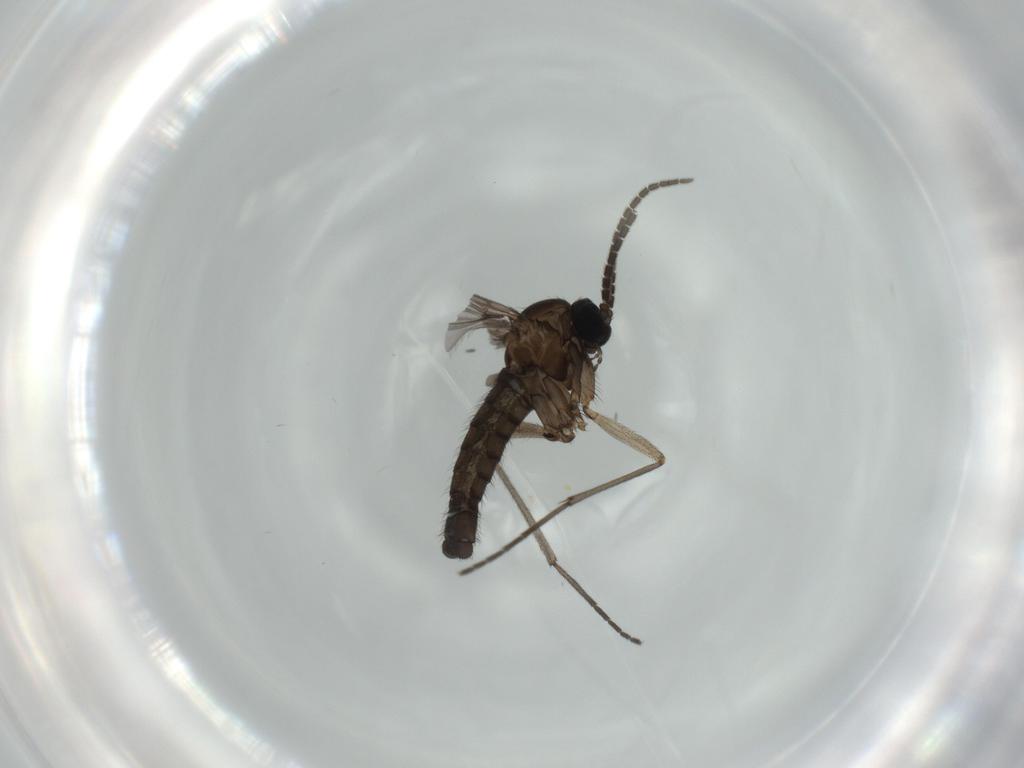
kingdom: Animalia
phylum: Arthropoda
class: Insecta
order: Diptera
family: Sciaridae
